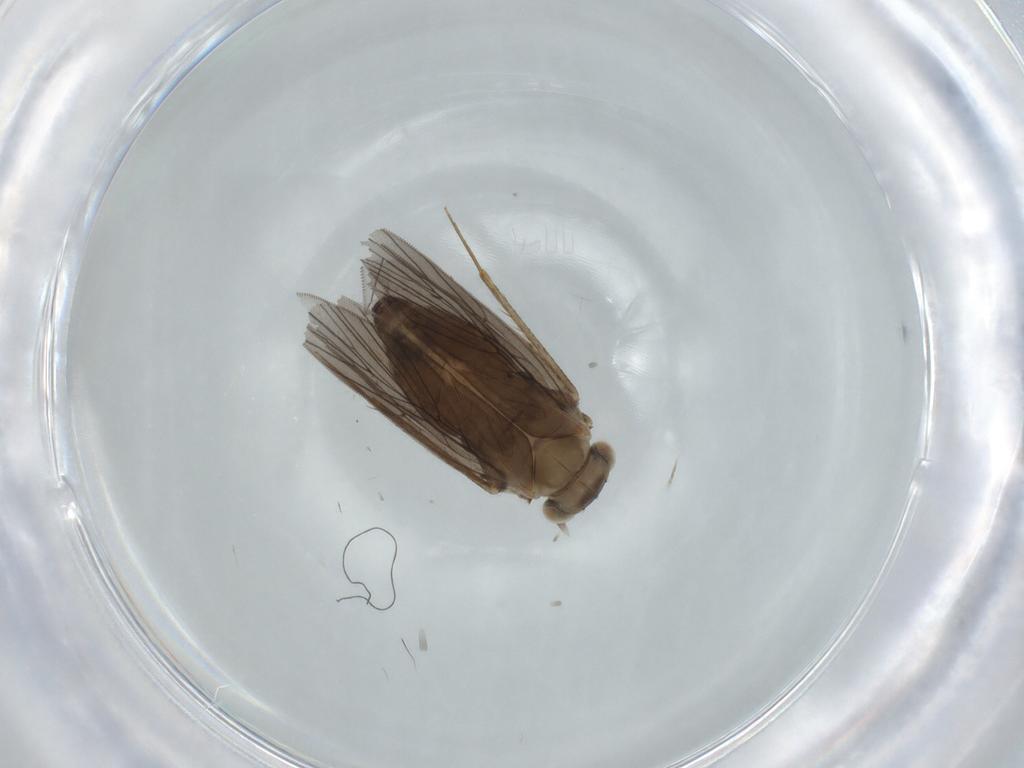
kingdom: Animalia
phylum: Arthropoda
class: Insecta
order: Psocodea
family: Lepidopsocidae
